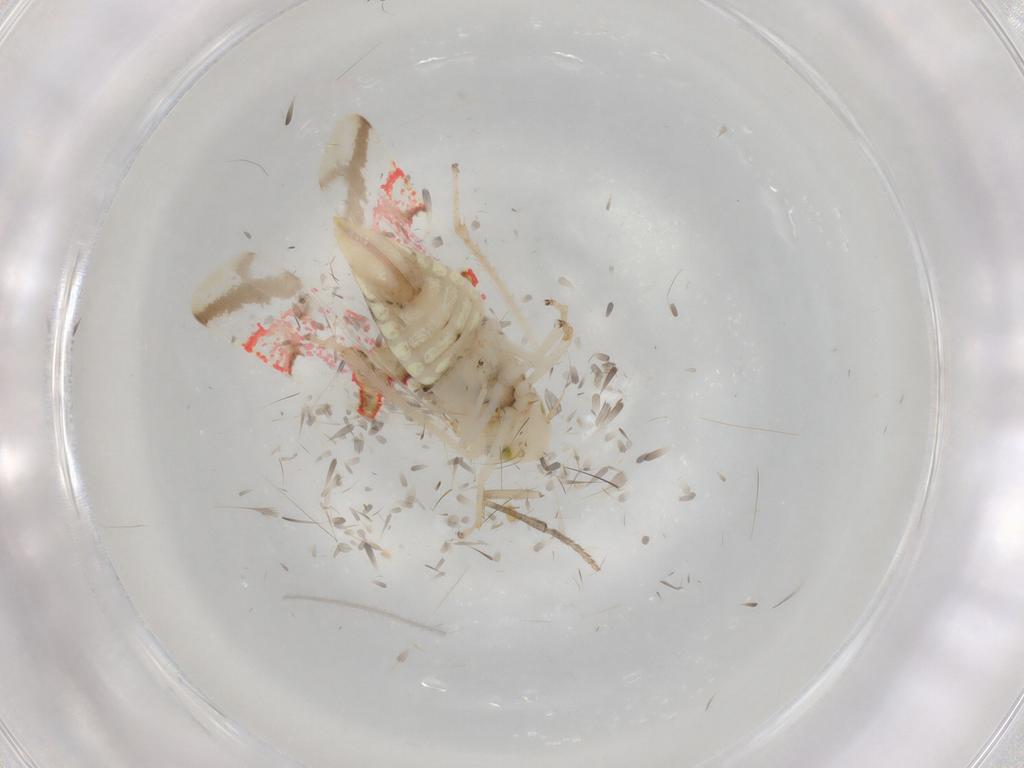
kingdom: Animalia
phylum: Arthropoda
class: Insecta
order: Hemiptera
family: Cicadellidae
